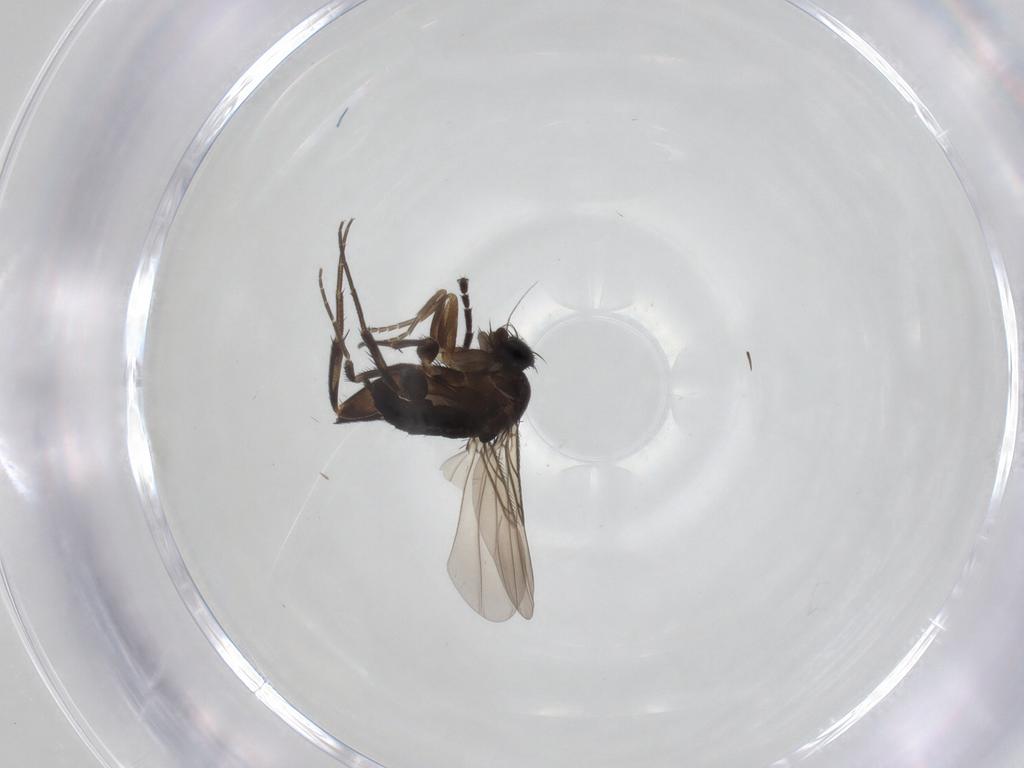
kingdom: Animalia
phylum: Arthropoda
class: Insecta
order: Diptera
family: Phoridae
